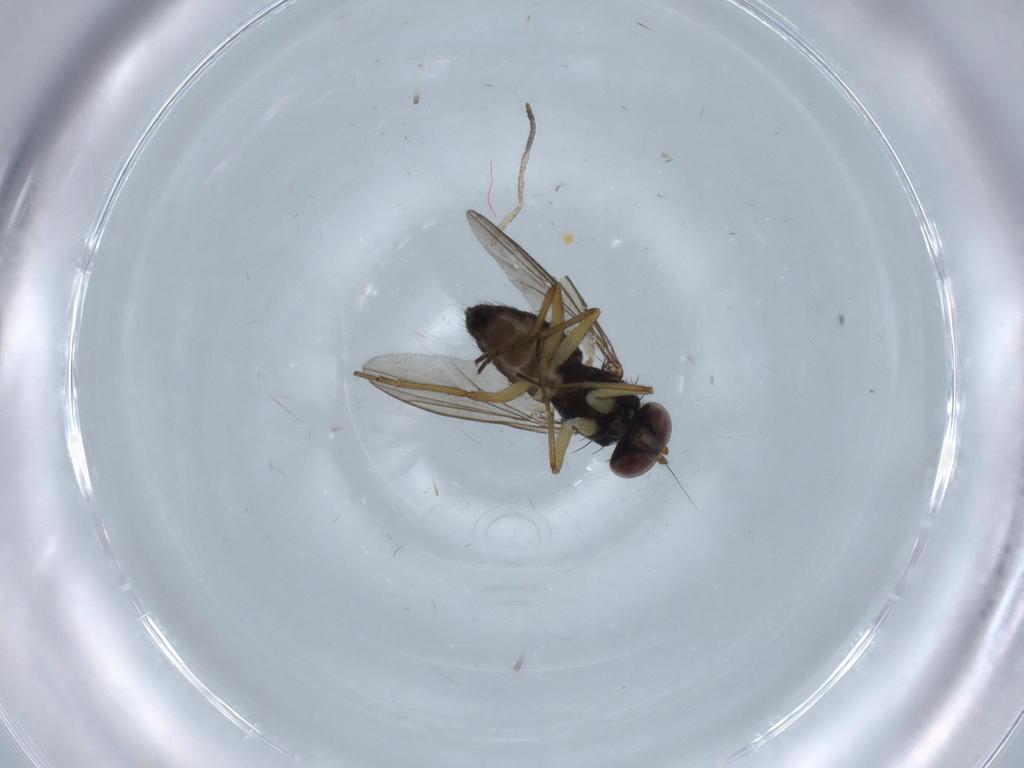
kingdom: Animalia
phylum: Arthropoda
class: Insecta
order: Diptera
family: Dolichopodidae
